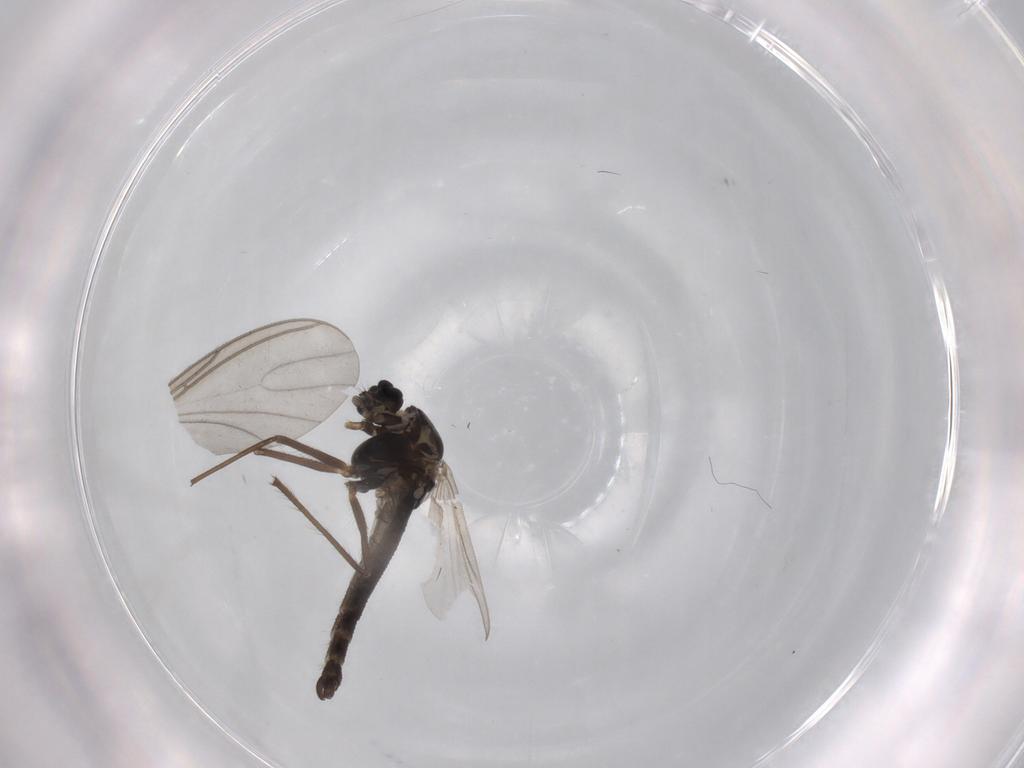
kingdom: Animalia
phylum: Arthropoda
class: Insecta
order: Diptera
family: Chironomidae
